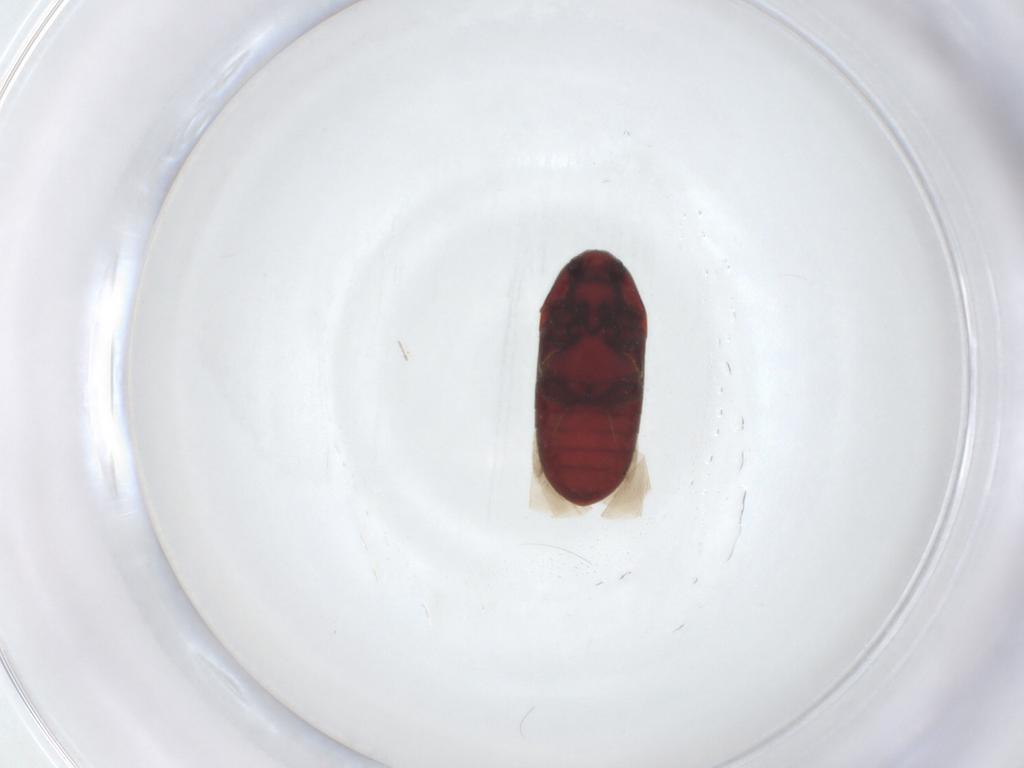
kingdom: Animalia
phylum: Arthropoda
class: Insecta
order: Coleoptera
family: Throscidae
